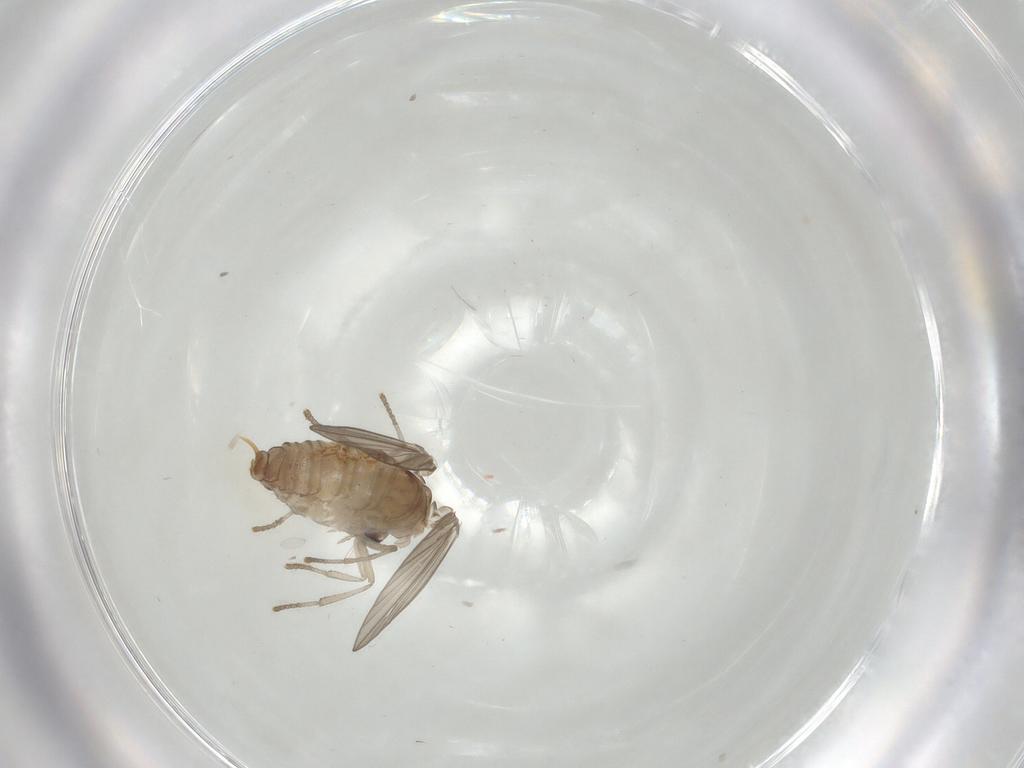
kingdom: Animalia
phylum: Arthropoda
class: Insecta
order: Diptera
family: Psychodidae
